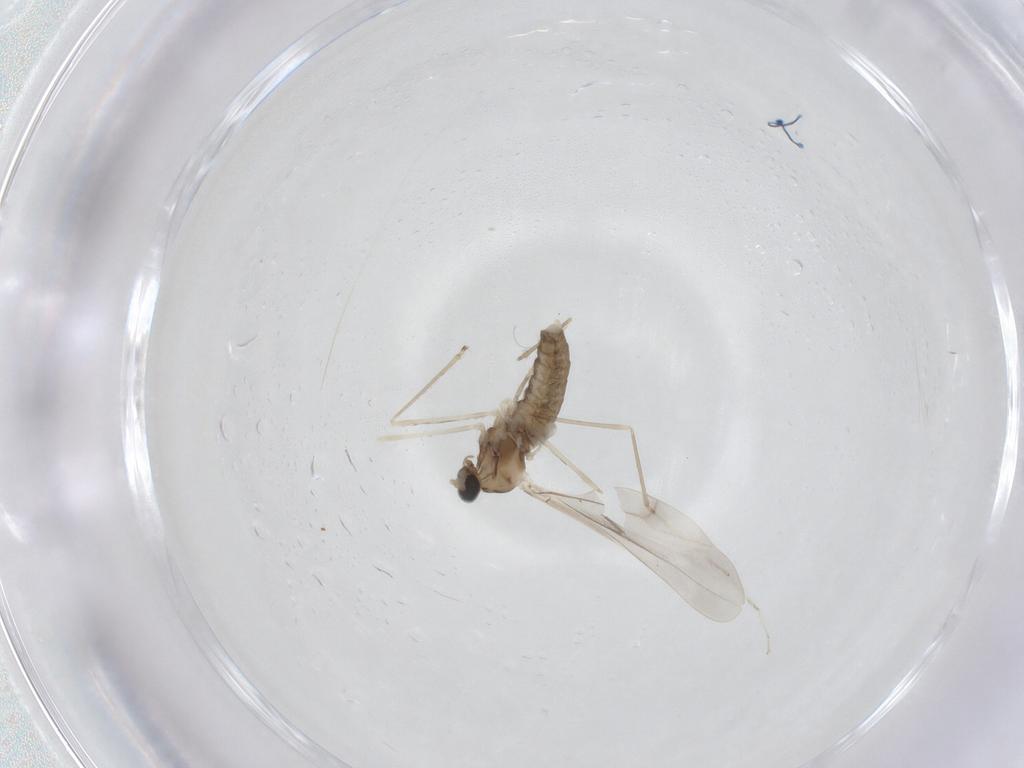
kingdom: Animalia
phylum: Arthropoda
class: Insecta
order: Diptera
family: Cecidomyiidae
